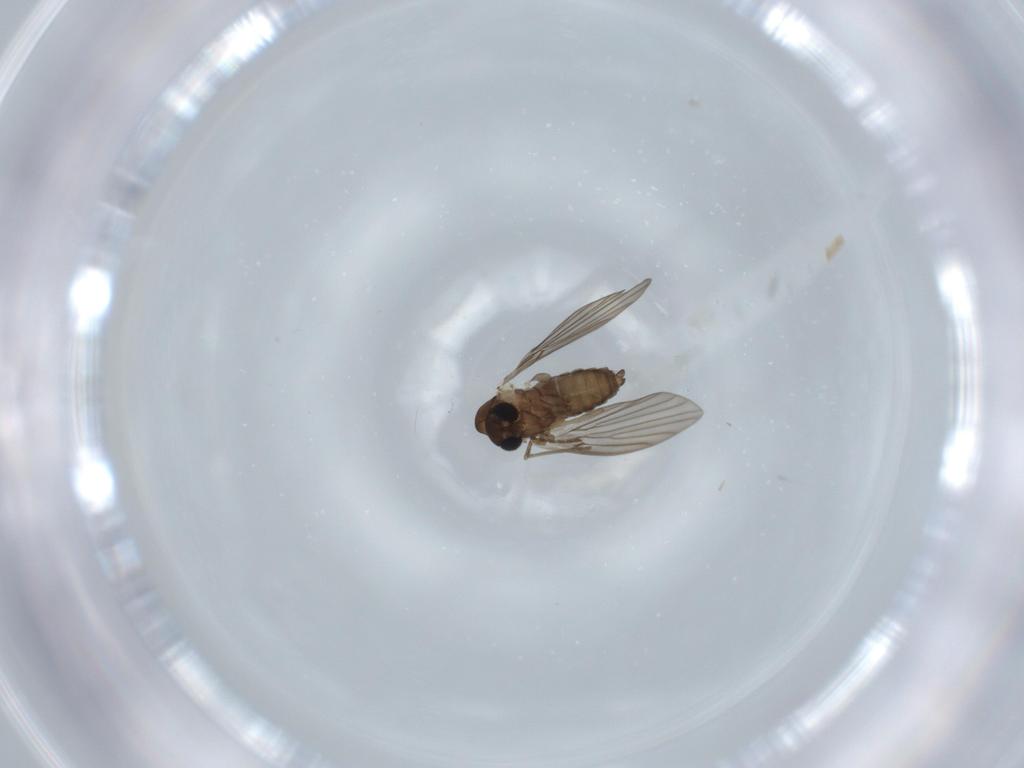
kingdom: Animalia
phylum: Arthropoda
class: Insecta
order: Diptera
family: Psychodidae
